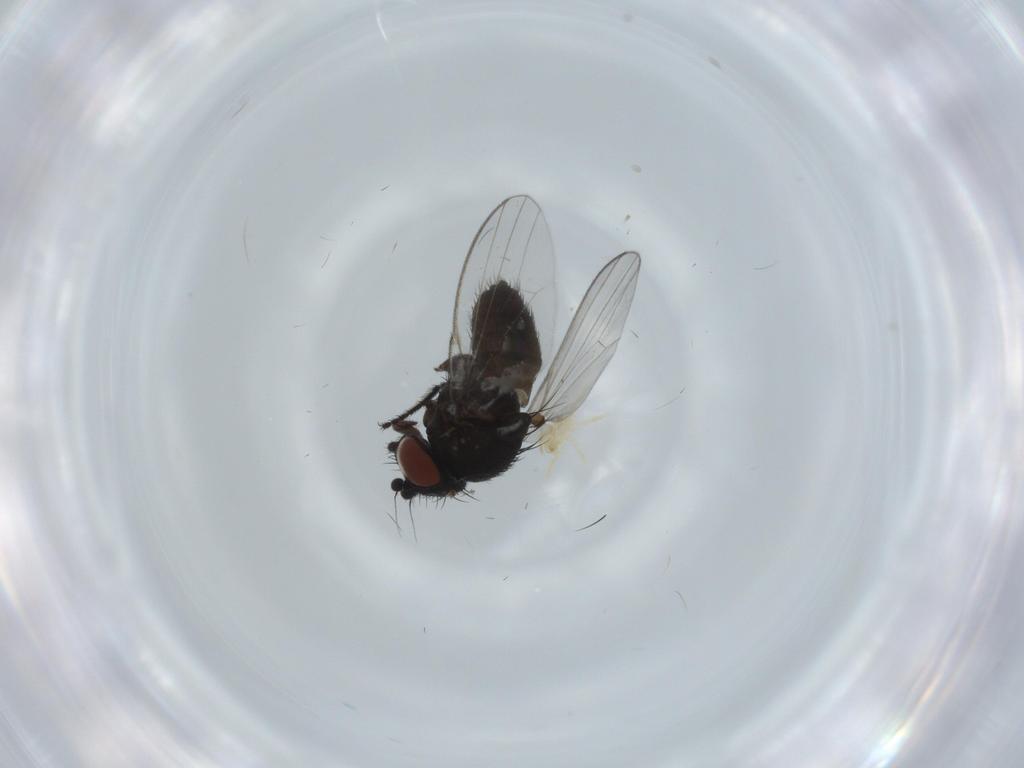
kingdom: Animalia
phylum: Arthropoda
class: Insecta
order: Diptera
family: Milichiidae
